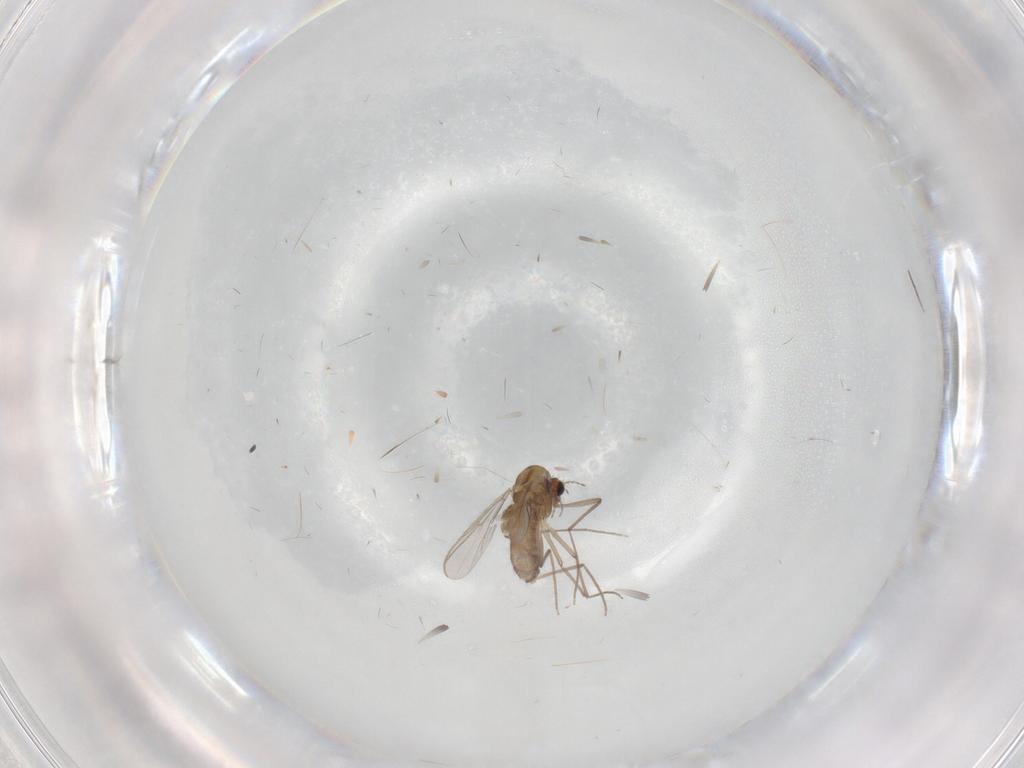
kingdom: Animalia
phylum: Arthropoda
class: Insecta
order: Diptera
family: Chironomidae
